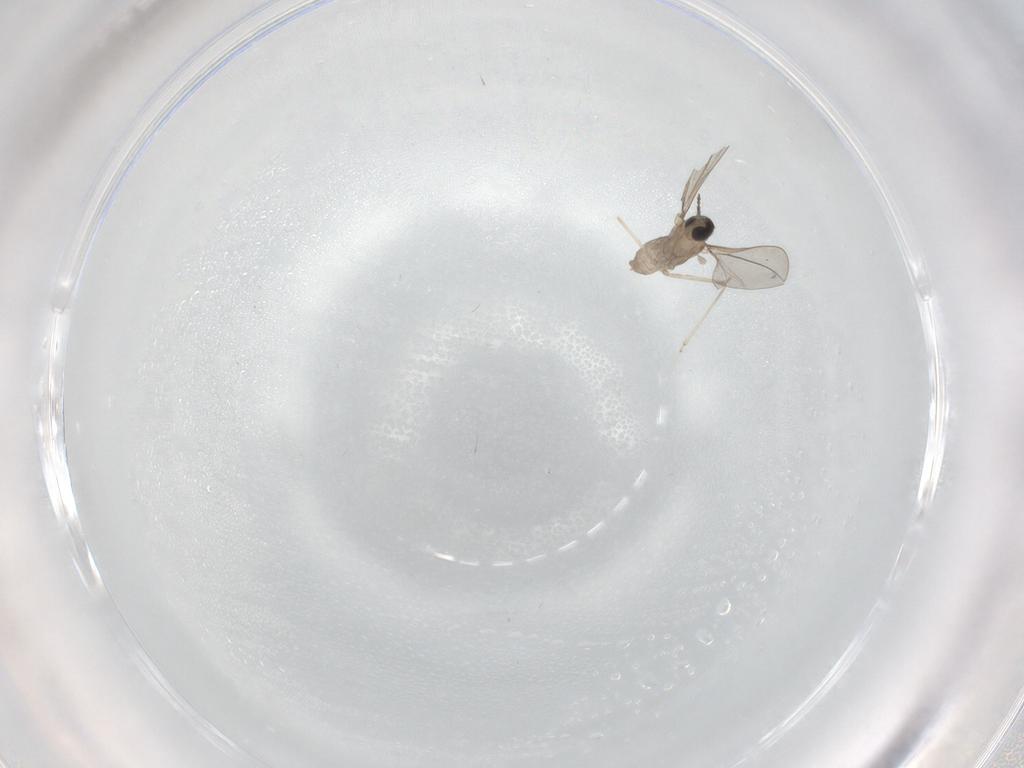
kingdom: Animalia
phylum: Arthropoda
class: Insecta
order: Diptera
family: Cecidomyiidae
